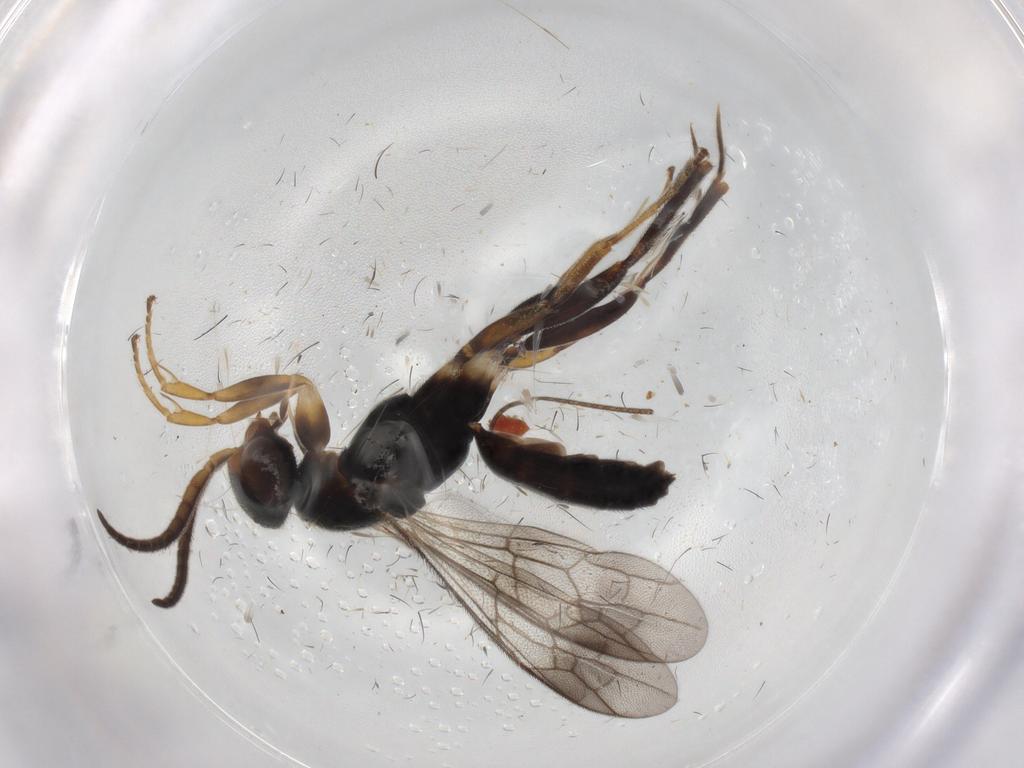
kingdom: Animalia
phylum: Arthropoda
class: Insecta
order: Hymenoptera
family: Pompilidae
